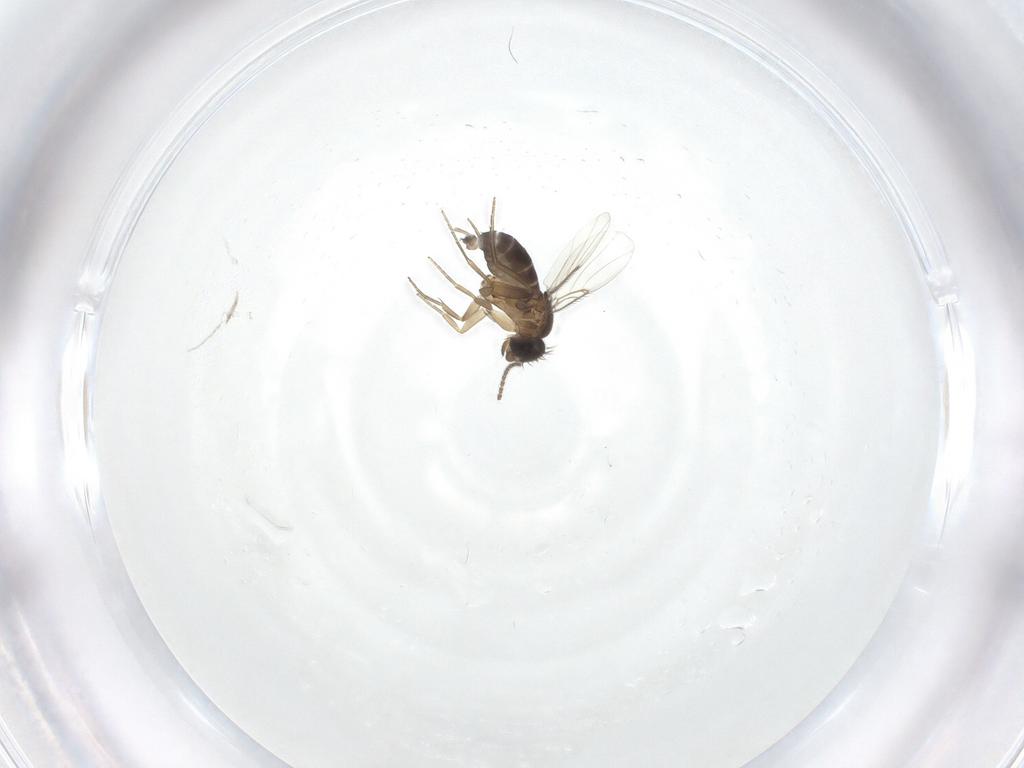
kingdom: Animalia
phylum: Arthropoda
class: Insecta
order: Diptera
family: Phoridae
